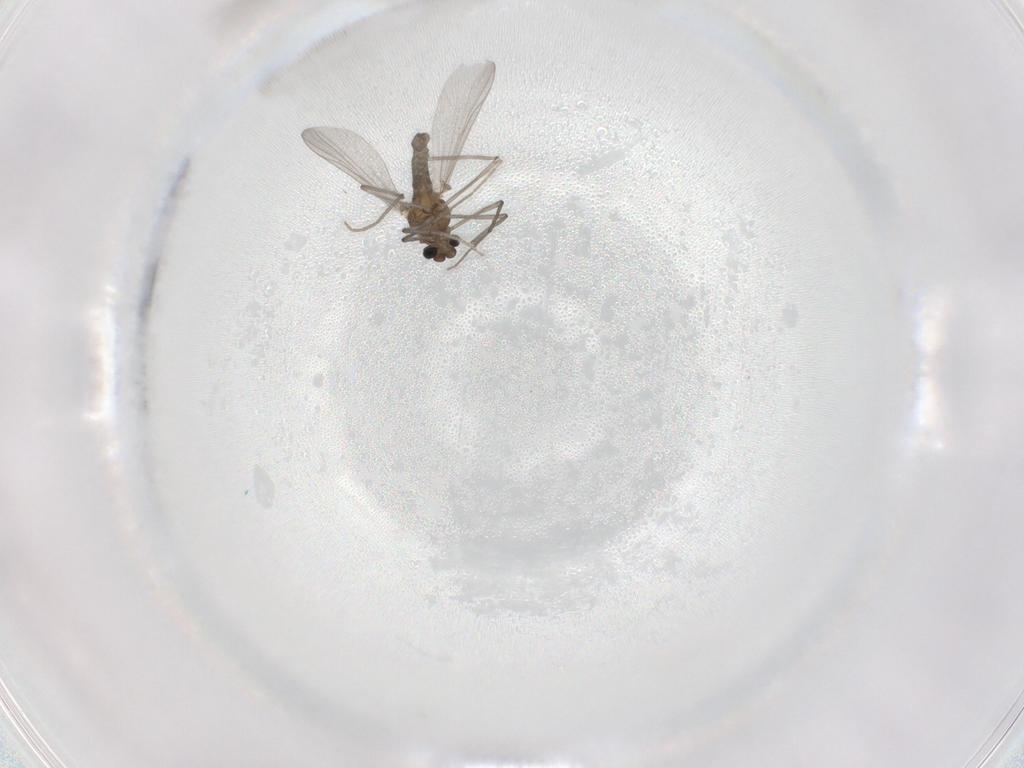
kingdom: Animalia
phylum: Arthropoda
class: Insecta
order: Diptera
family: Chironomidae
